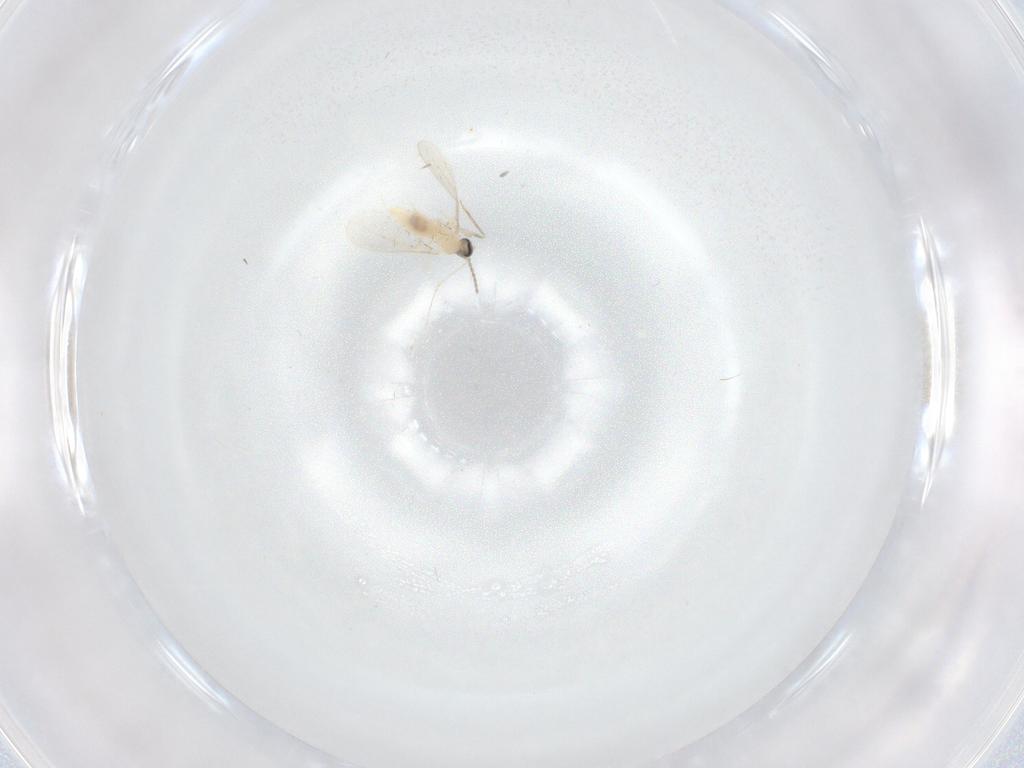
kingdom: Animalia
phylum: Arthropoda
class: Insecta
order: Diptera
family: Cecidomyiidae
